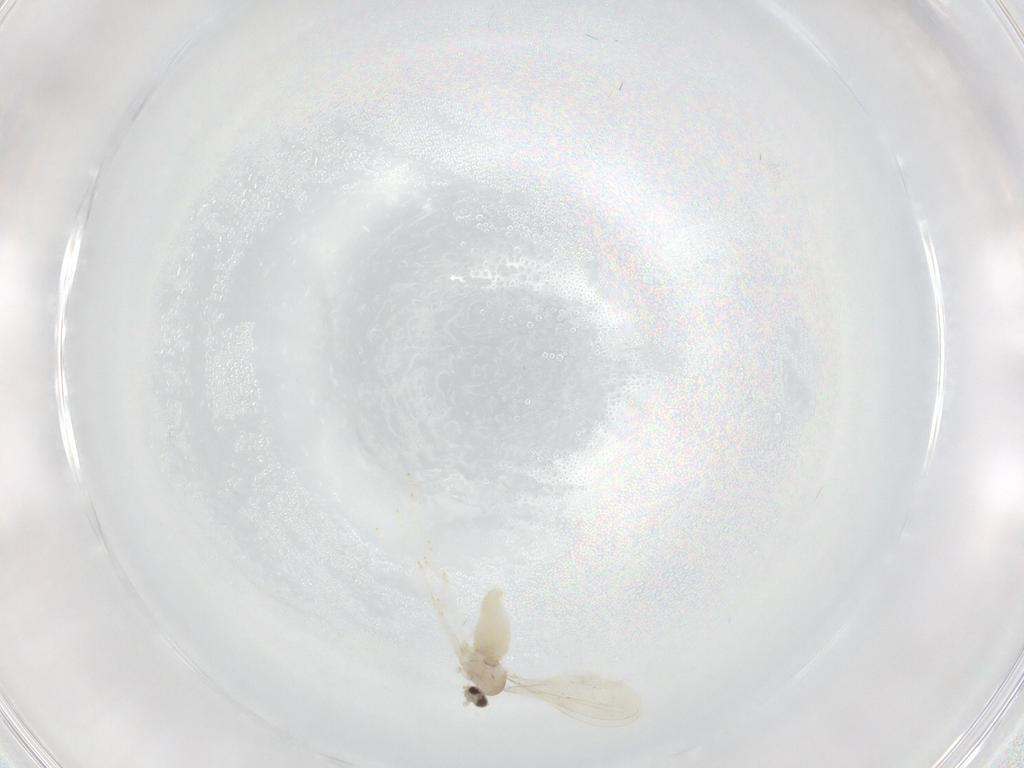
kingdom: Animalia
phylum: Arthropoda
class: Insecta
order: Diptera
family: Cecidomyiidae
